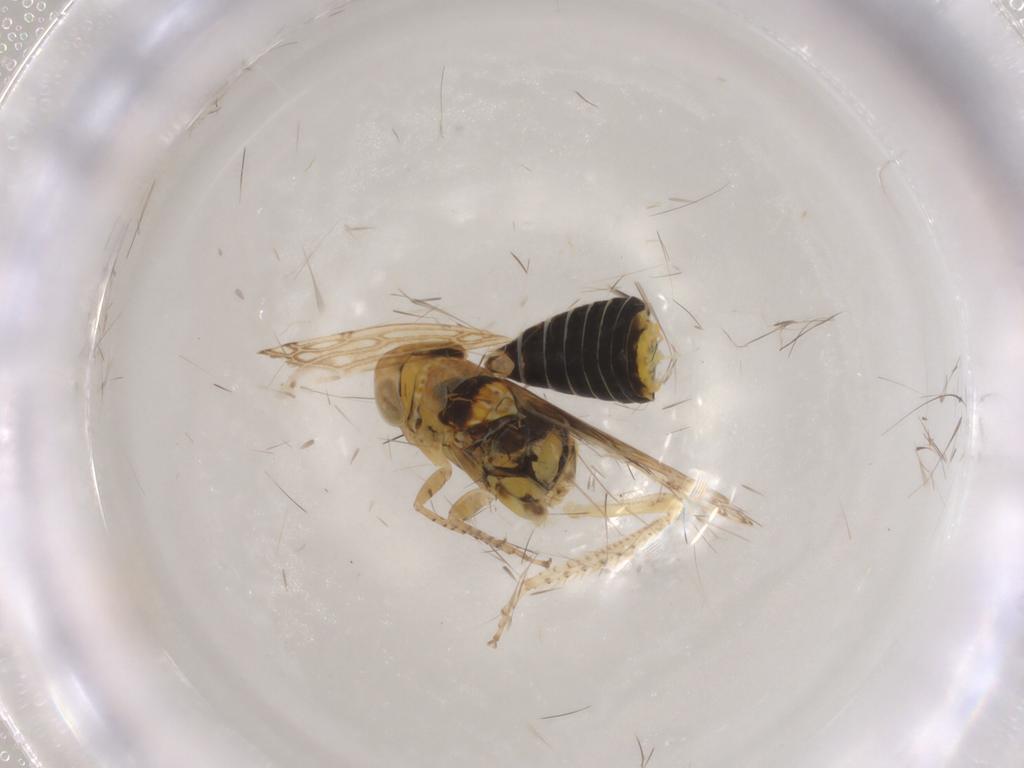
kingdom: Animalia
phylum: Arthropoda
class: Insecta
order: Hemiptera
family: Cicadellidae
